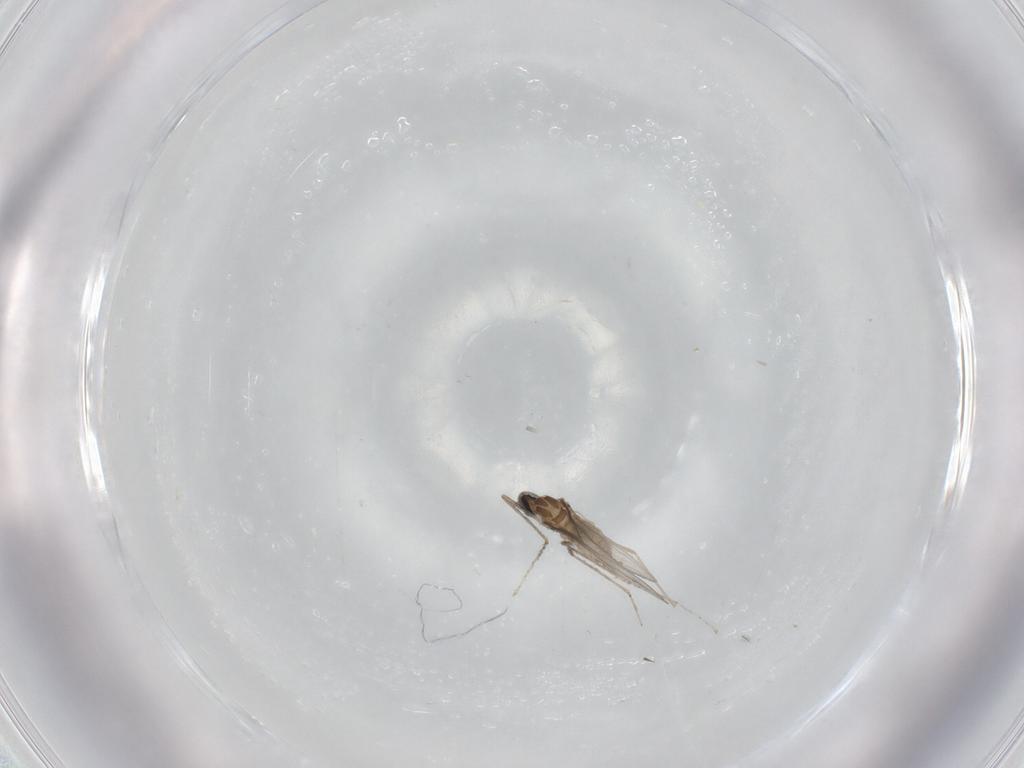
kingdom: Animalia
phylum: Arthropoda
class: Insecta
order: Diptera
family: Cecidomyiidae
